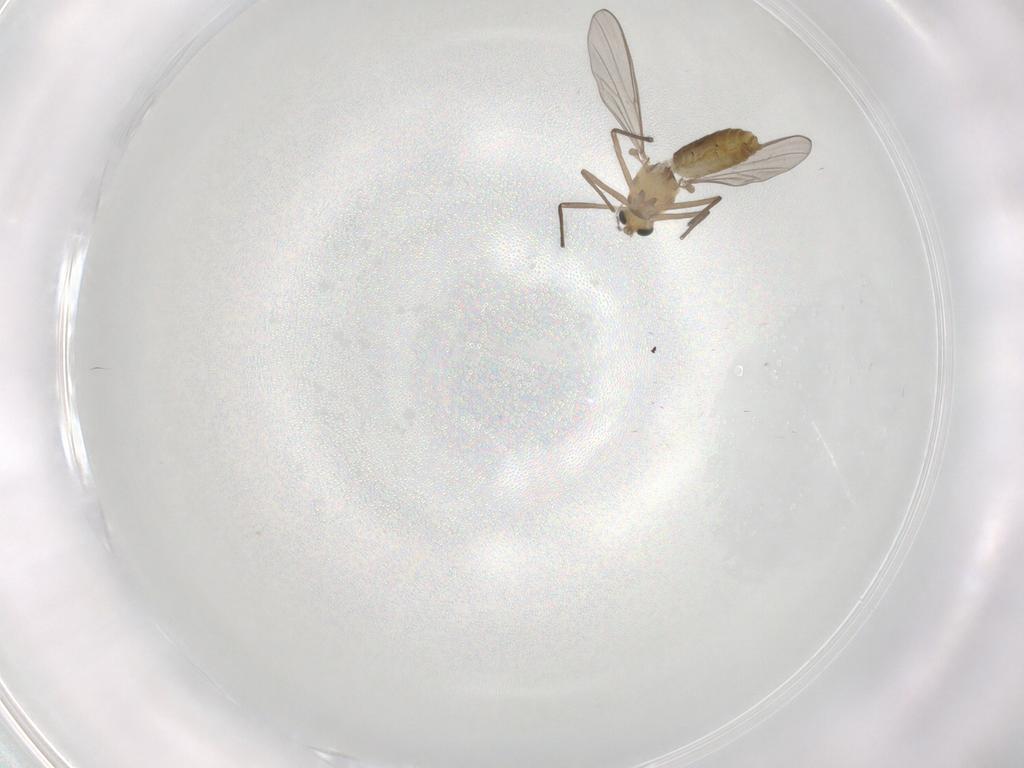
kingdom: Animalia
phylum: Arthropoda
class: Insecta
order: Diptera
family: Chironomidae
